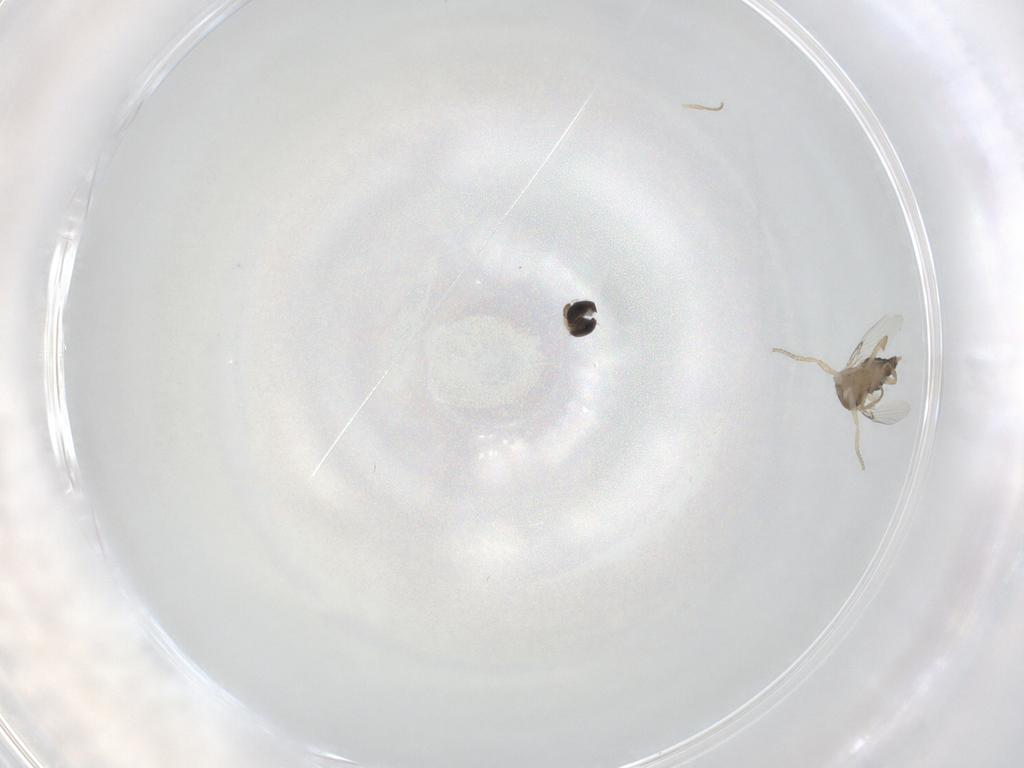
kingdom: Animalia
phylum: Arthropoda
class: Insecta
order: Diptera
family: Phoridae
